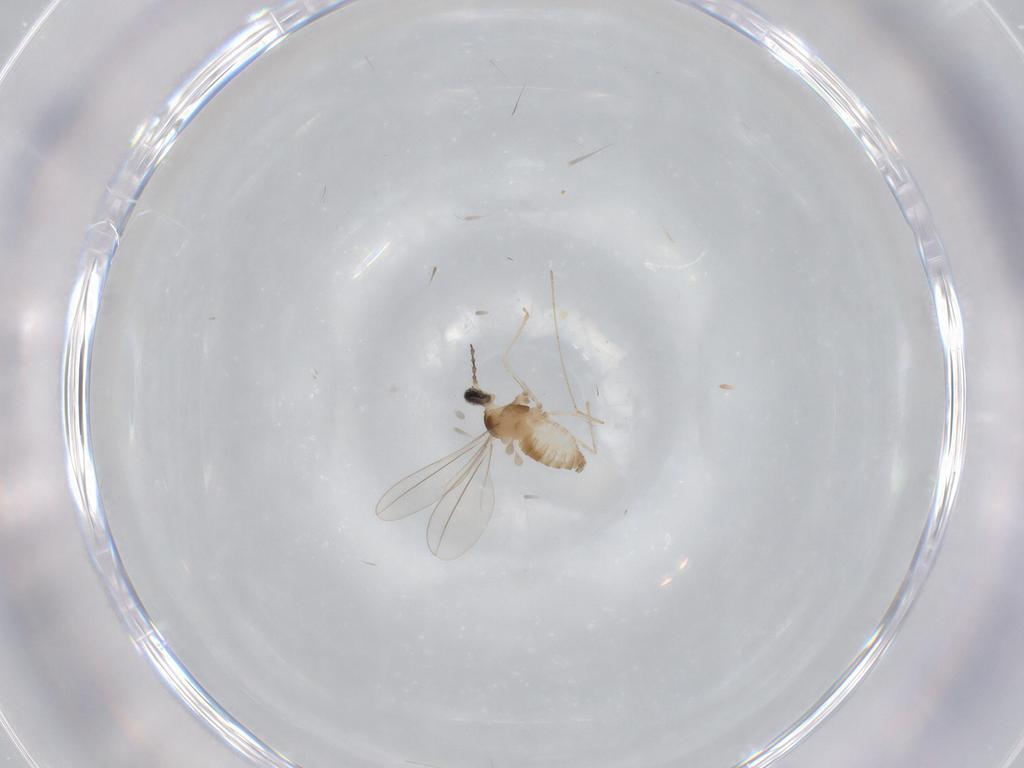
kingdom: Animalia
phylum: Arthropoda
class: Insecta
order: Diptera
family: Cecidomyiidae
